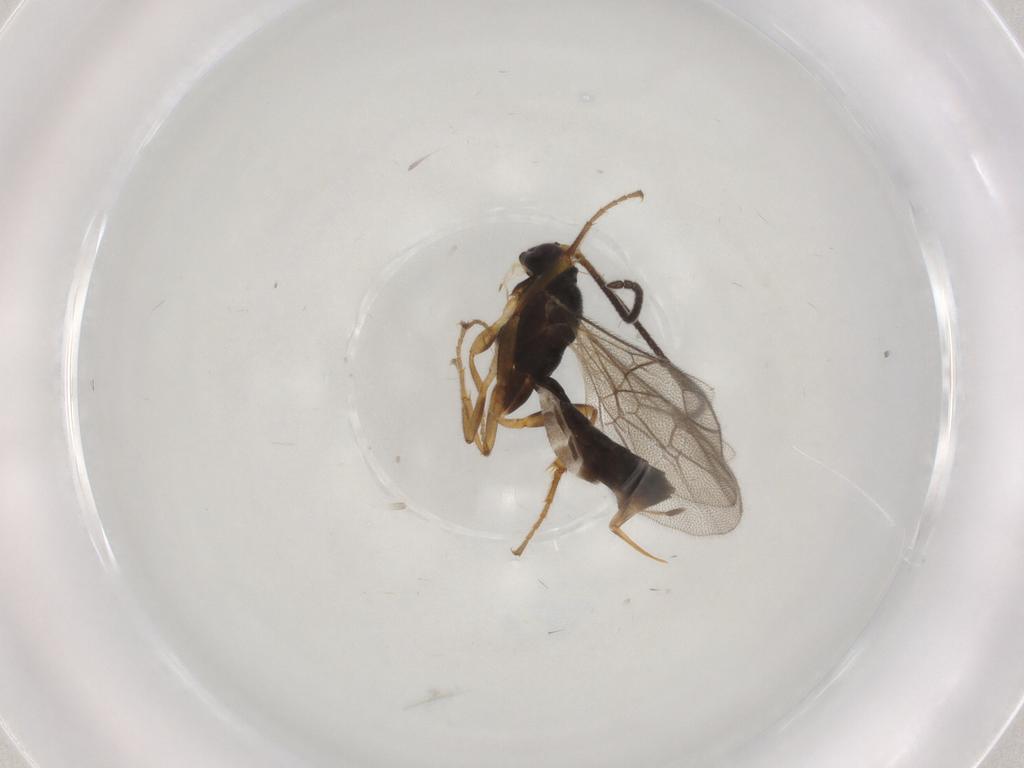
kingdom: Animalia
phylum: Arthropoda
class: Insecta
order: Hymenoptera
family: Ichneumonidae
